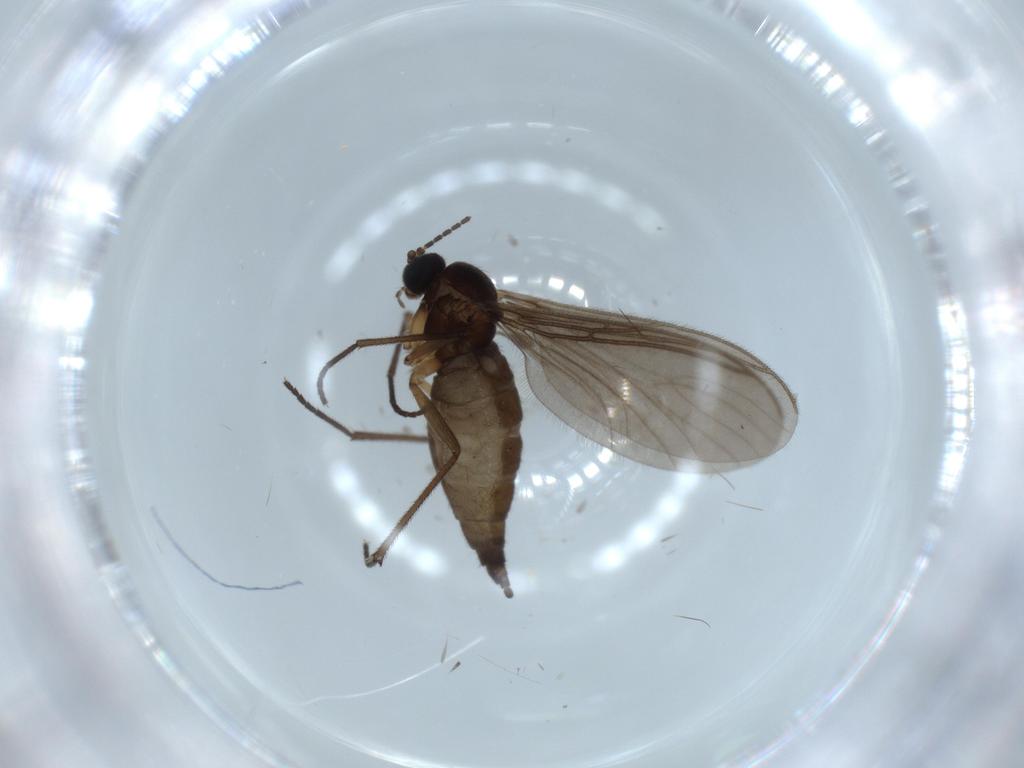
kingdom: Animalia
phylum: Arthropoda
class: Insecta
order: Diptera
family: Sciaridae
